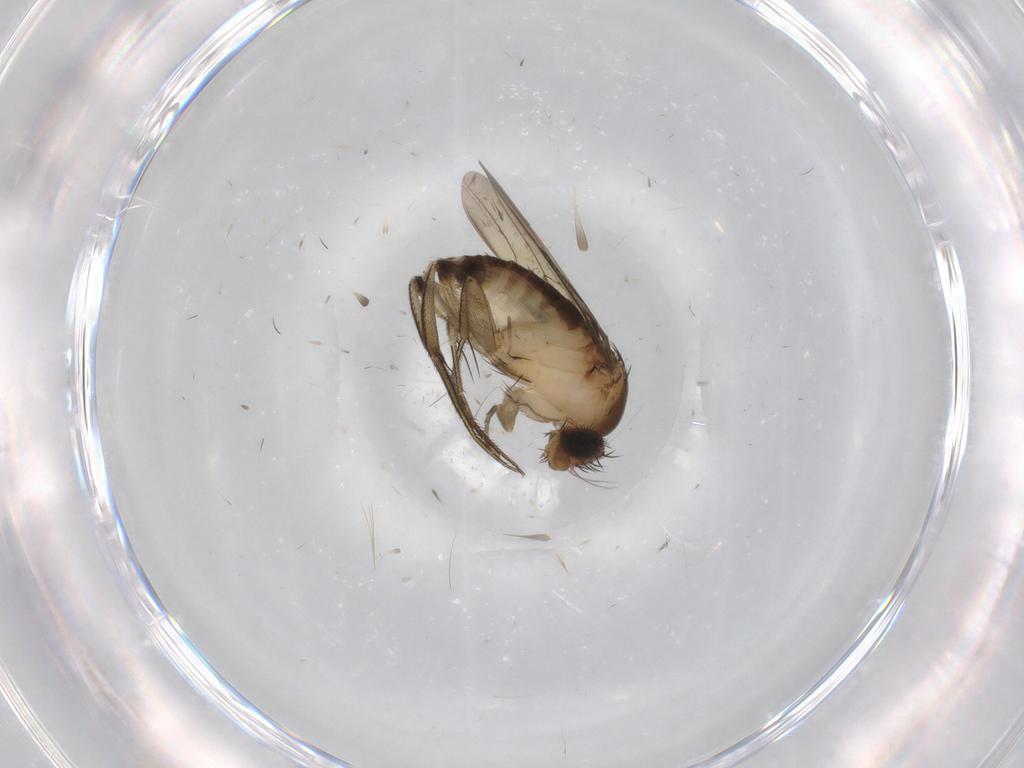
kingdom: Animalia
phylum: Arthropoda
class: Insecta
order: Diptera
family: Phoridae
